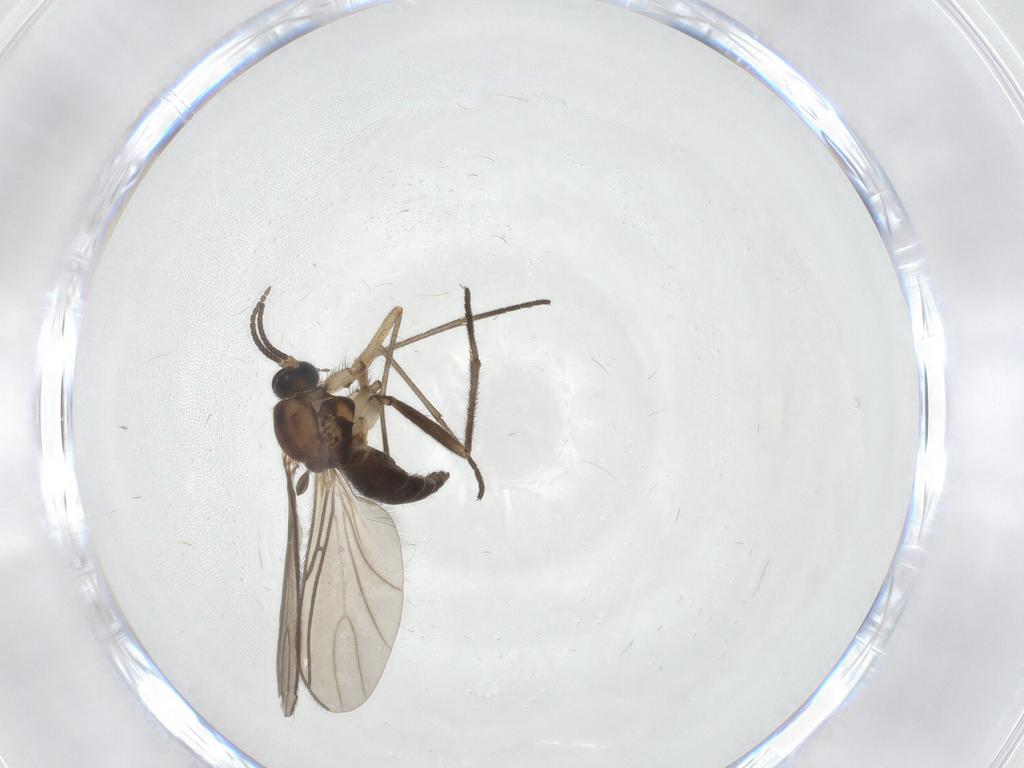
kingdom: Animalia
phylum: Arthropoda
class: Insecta
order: Diptera
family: Sciaridae
